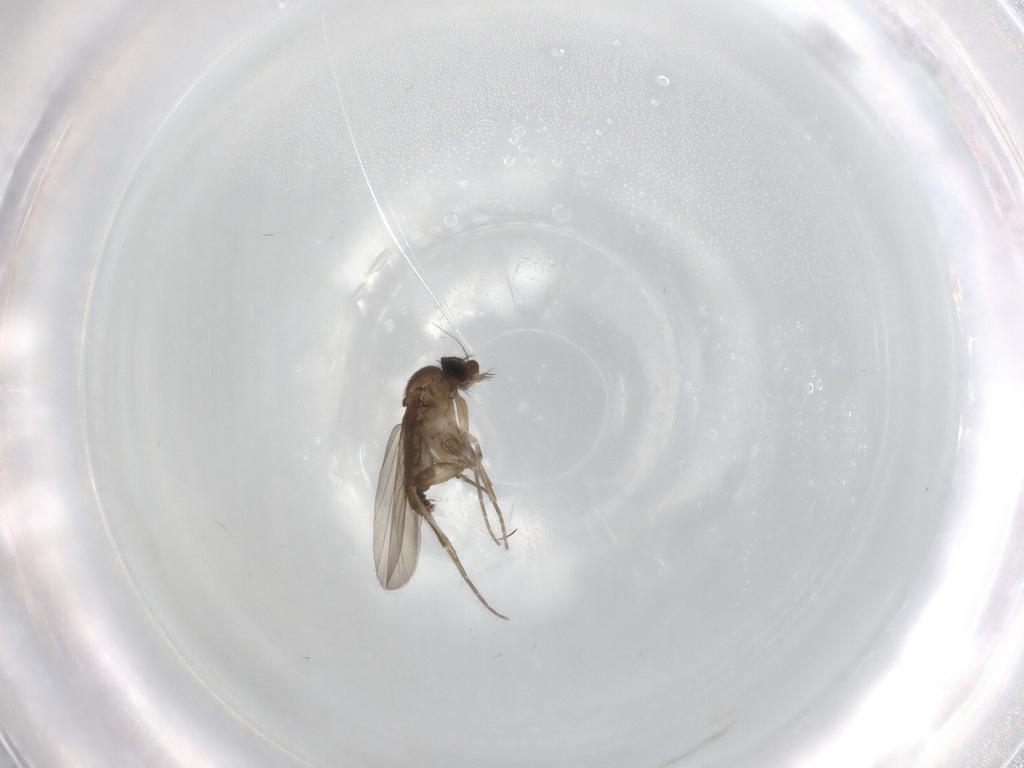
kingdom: Animalia
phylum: Arthropoda
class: Insecta
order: Diptera
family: Phoridae
